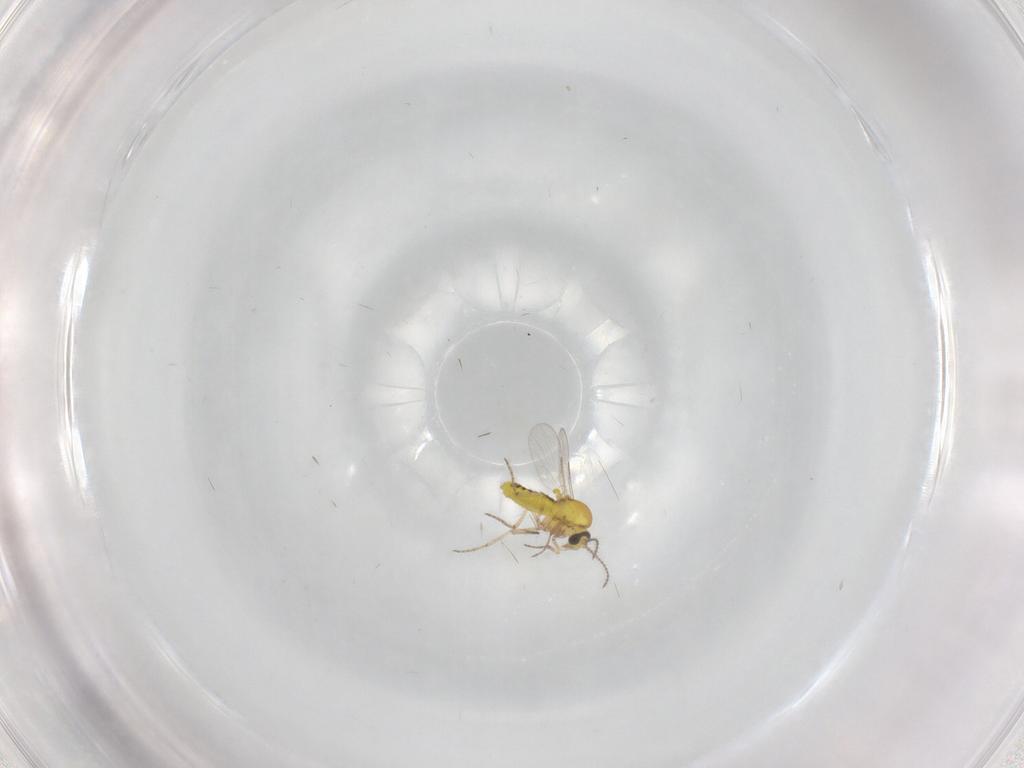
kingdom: Animalia
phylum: Arthropoda
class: Insecta
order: Diptera
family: Ceratopogonidae
